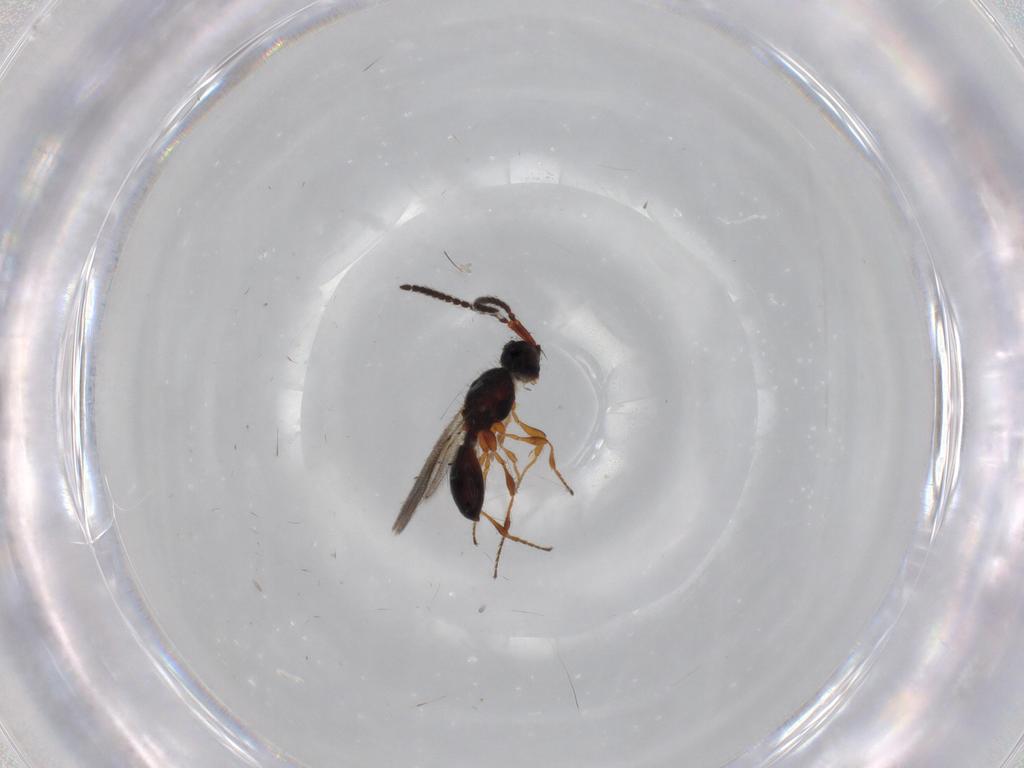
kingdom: Animalia
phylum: Arthropoda
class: Insecta
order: Hymenoptera
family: Diapriidae
